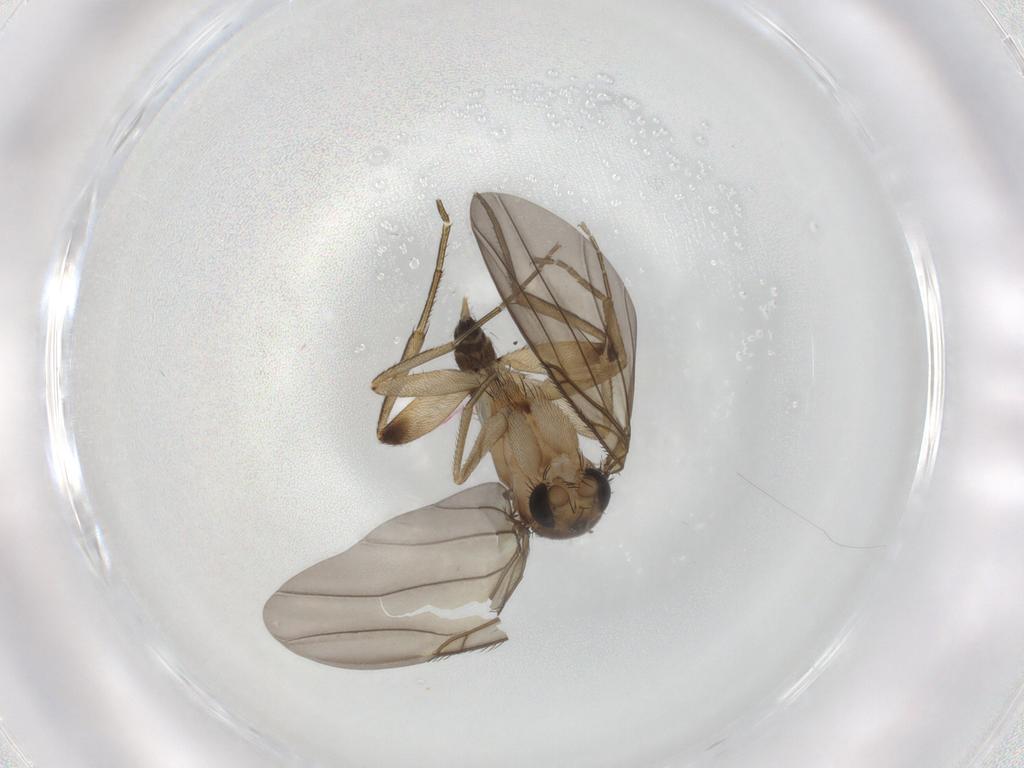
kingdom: Animalia
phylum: Arthropoda
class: Insecta
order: Diptera
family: Phoridae
